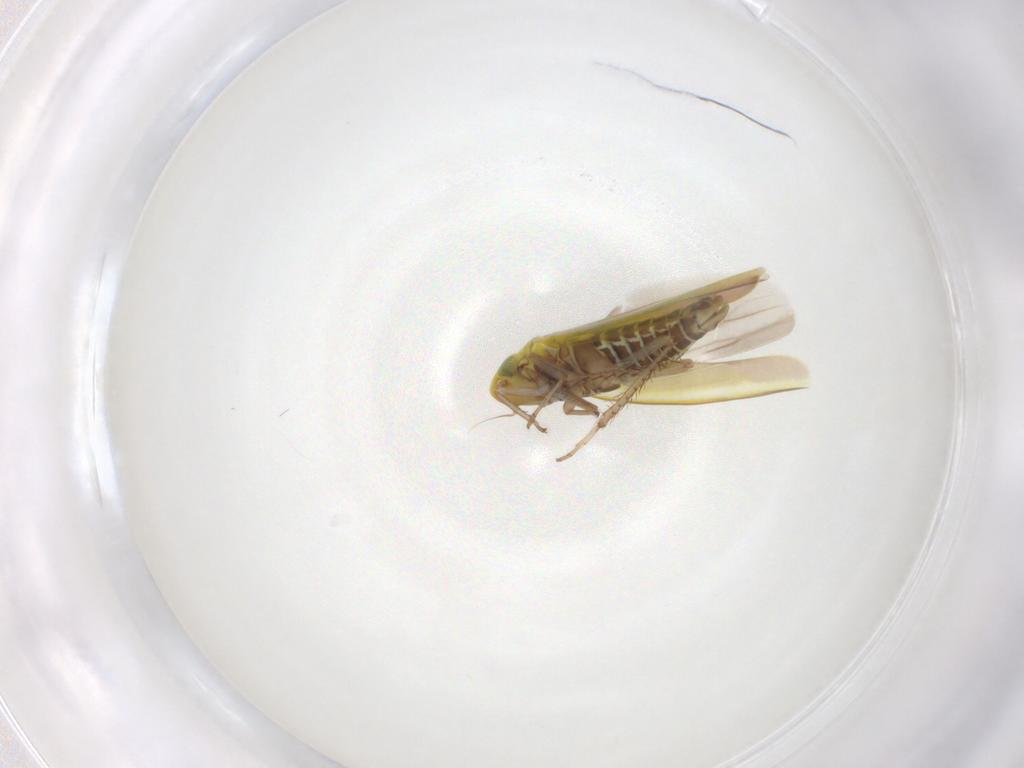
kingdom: Animalia
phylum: Arthropoda
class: Insecta
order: Hemiptera
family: Cicadellidae
